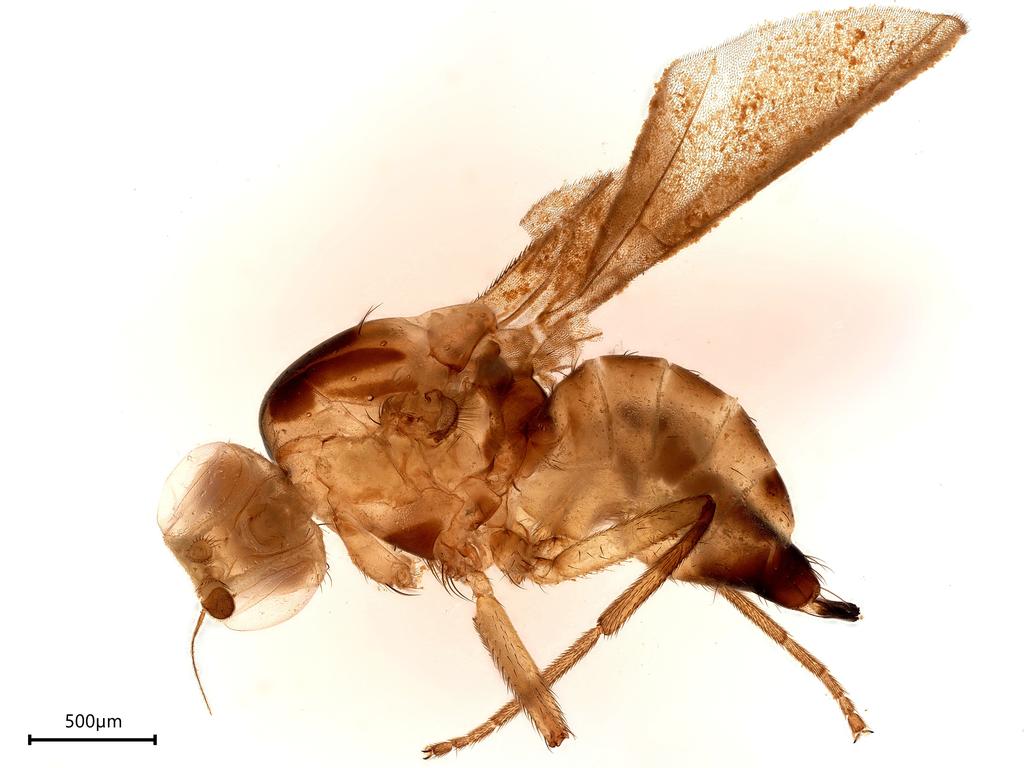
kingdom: Animalia
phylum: Arthropoda
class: Insecta
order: Diptera
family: Agromyzidae
